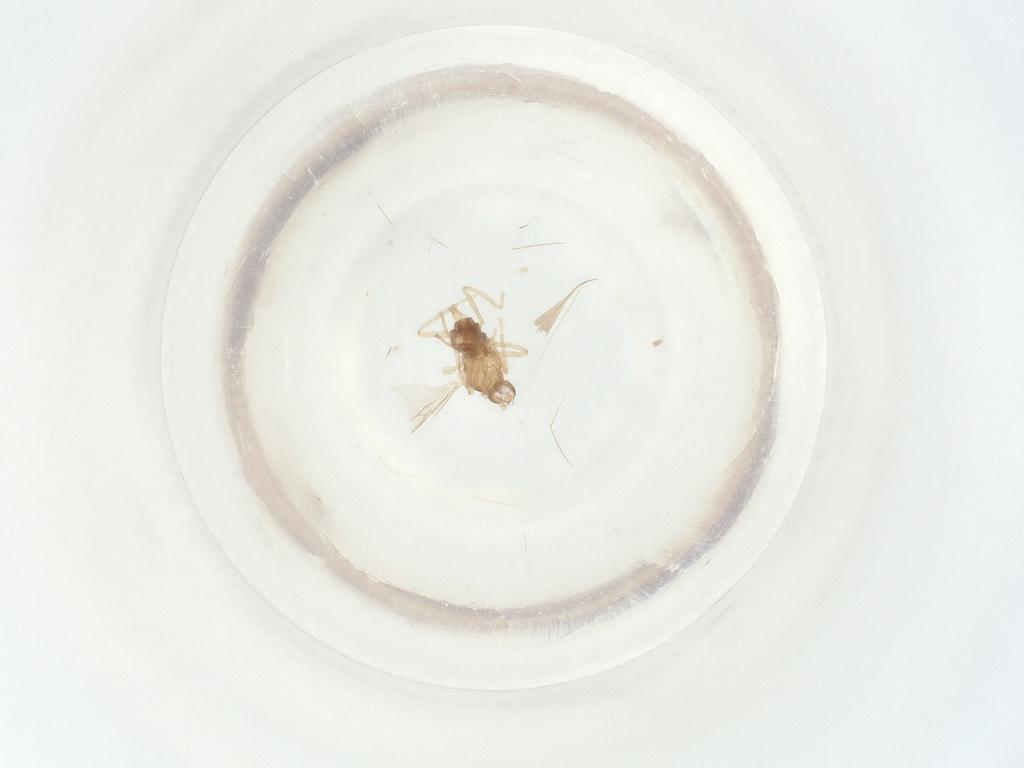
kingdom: Animalia
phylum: Arthropoda
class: Insecta
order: Diptera
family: Cecidomyiidae
